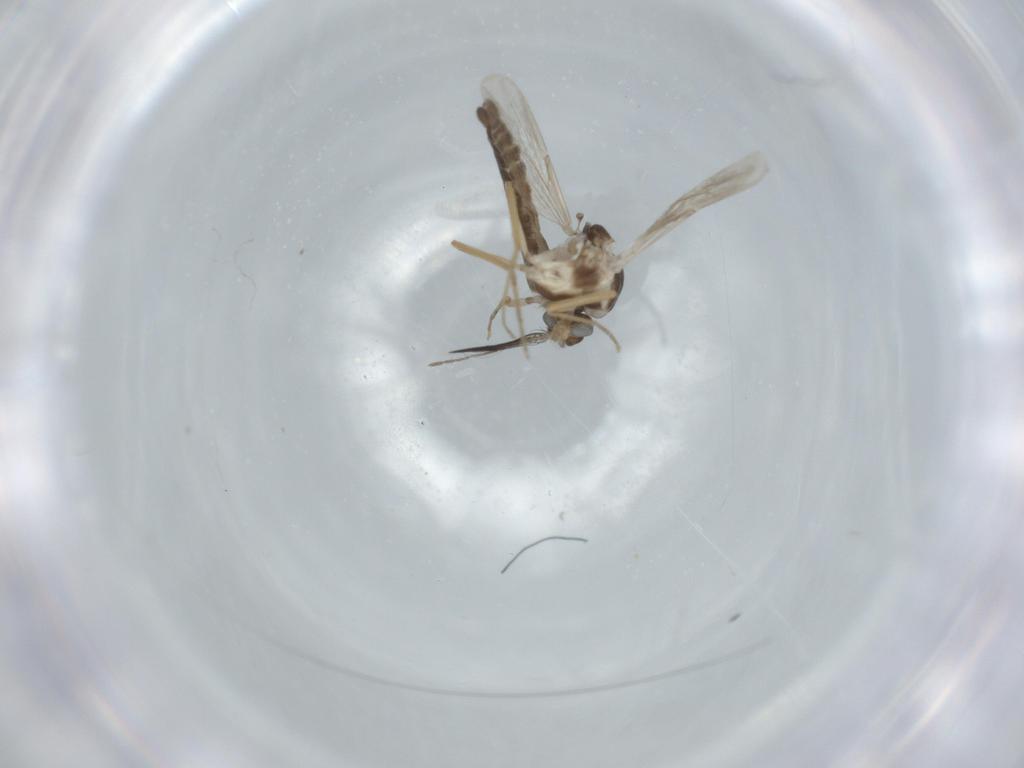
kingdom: Animalia
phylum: Arthropoda
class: Insecta
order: Diptera
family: Ceratopogonidae
